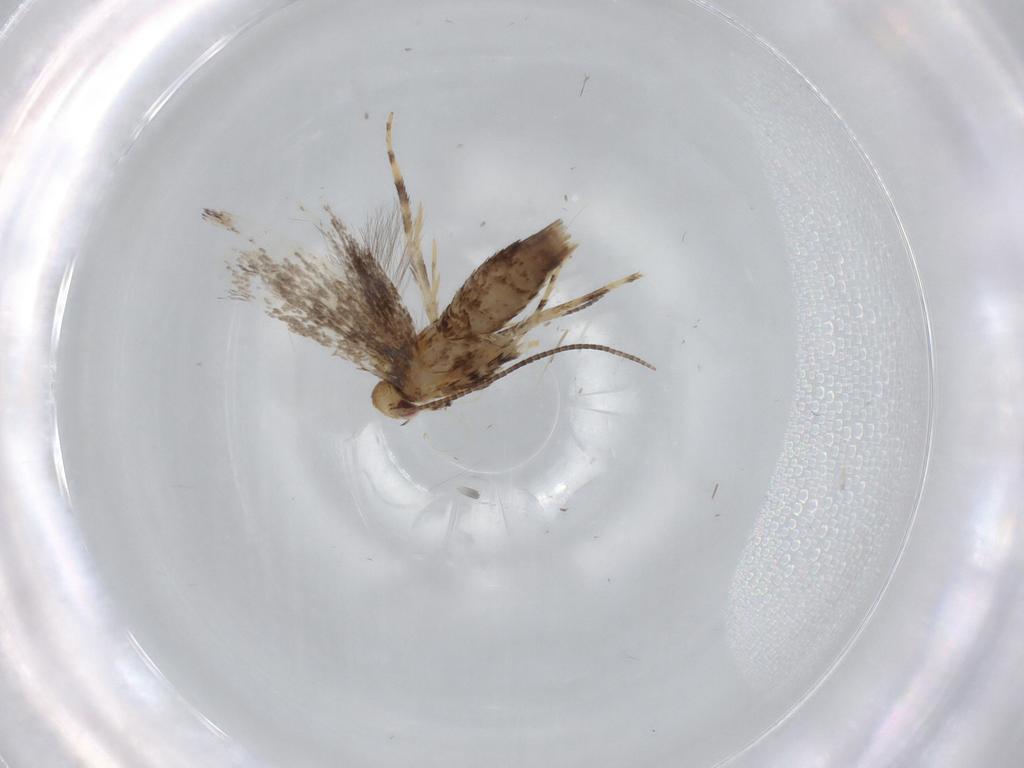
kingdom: Animalia
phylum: Arthropoda
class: Insecta
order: Lepidoptera
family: Gracillariidae
